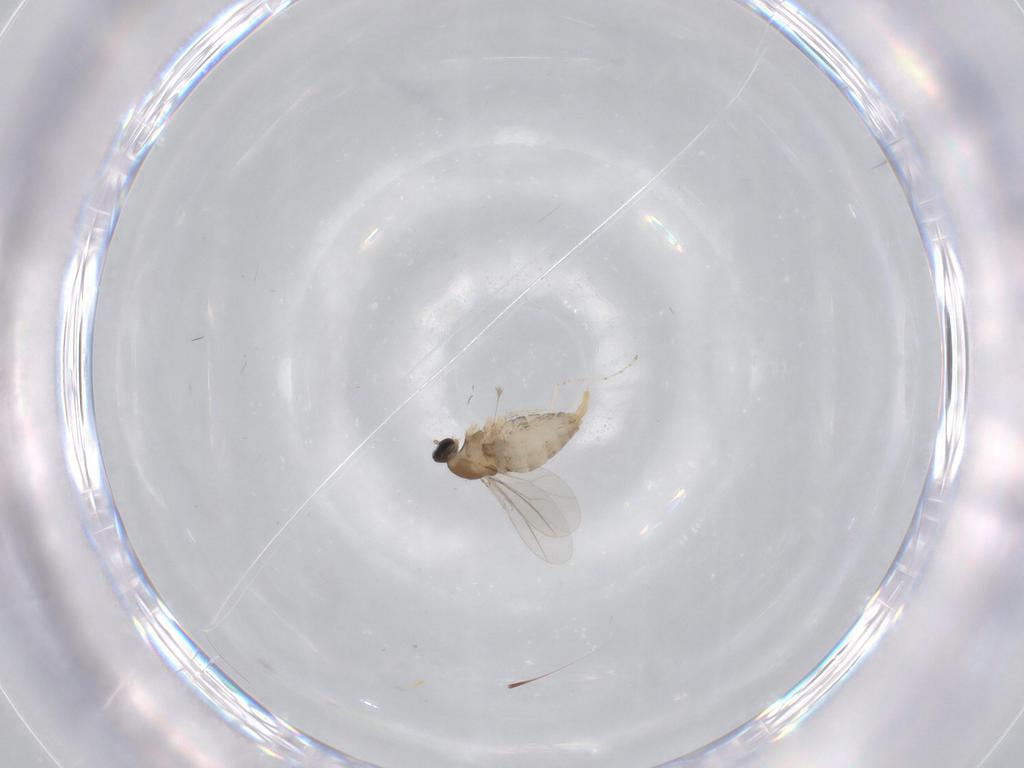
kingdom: Animalia
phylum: Arthropoda
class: Insecta
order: Diptera
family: Cecidomyiidae
